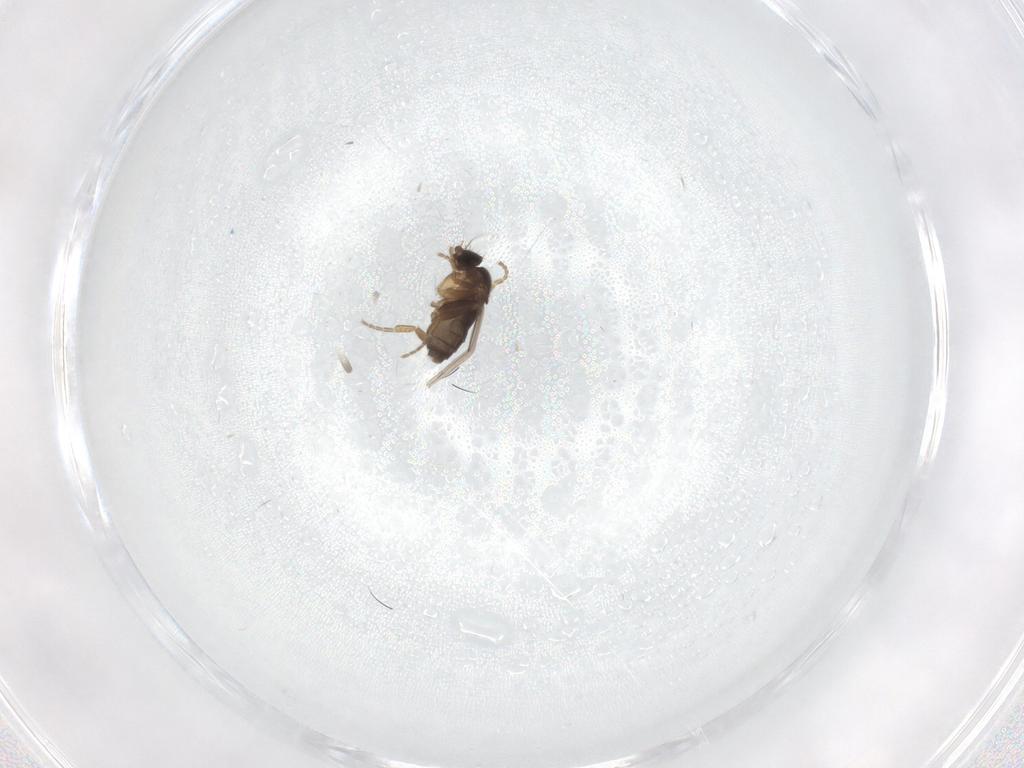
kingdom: Animalia
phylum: Arthropoda
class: Insecta
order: Diptera
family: Phoridae
